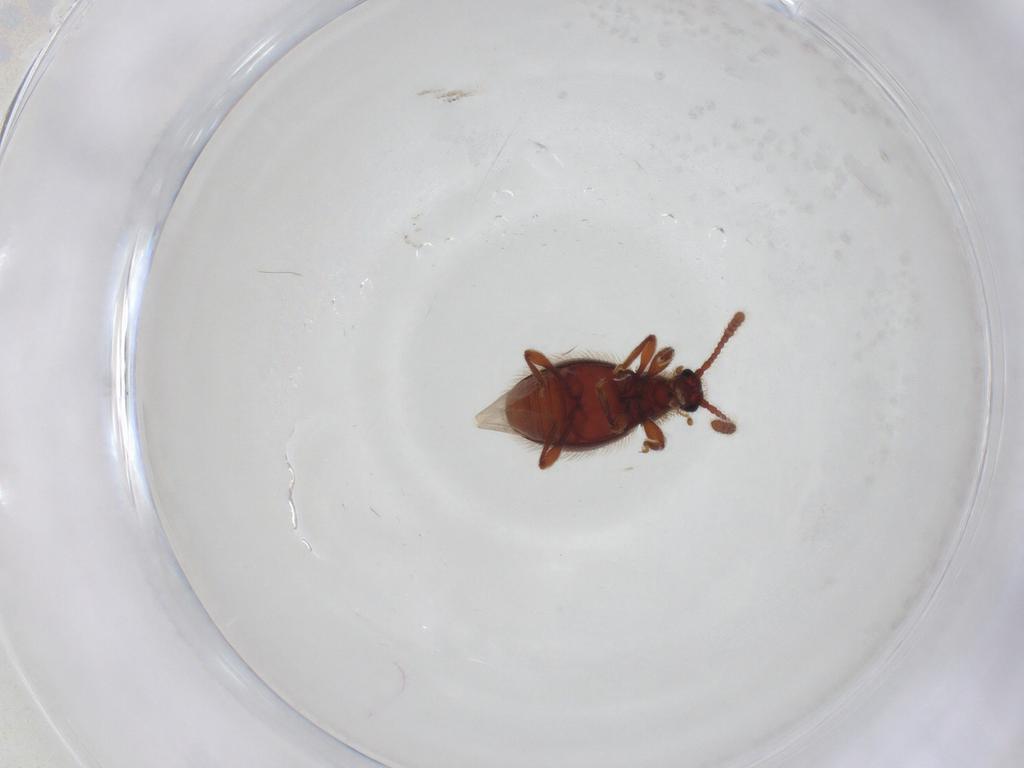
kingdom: Animalia
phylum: Arthropoda
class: Insecta
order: Coleoptera
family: Staphylinidae
